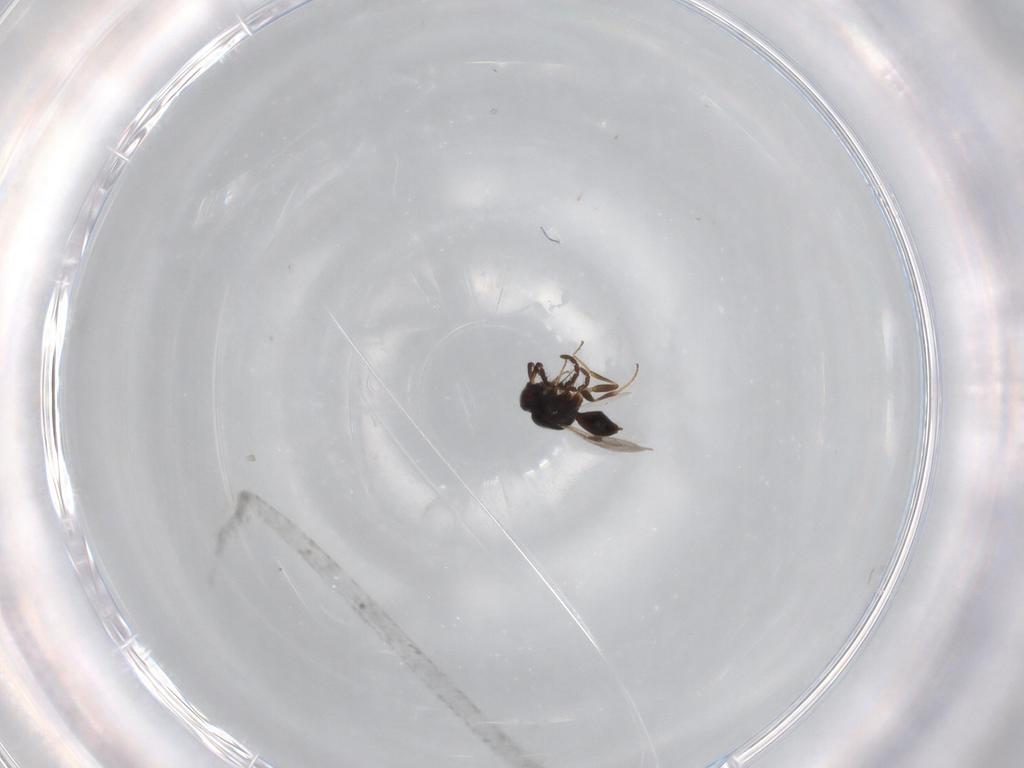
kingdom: Animalia
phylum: Arthropoda
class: Insecta
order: Hymenoptera
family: Megaspilidae
